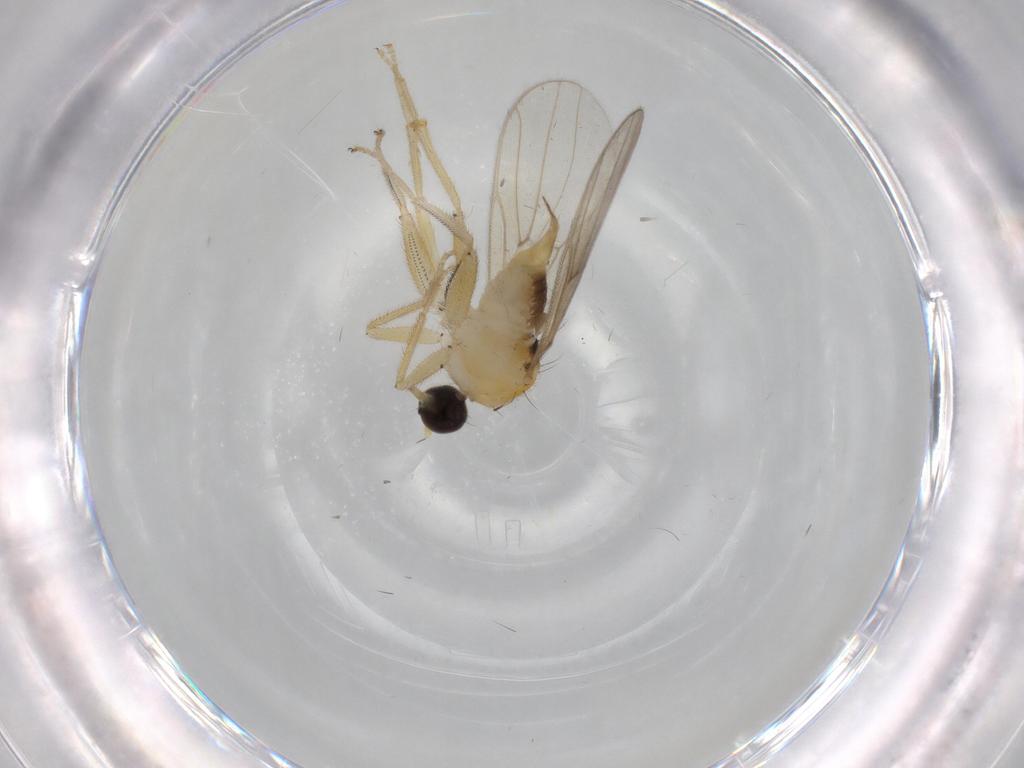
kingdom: Animalia
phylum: Arthropoda
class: Insecta
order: Diptera
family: Hybotidae
